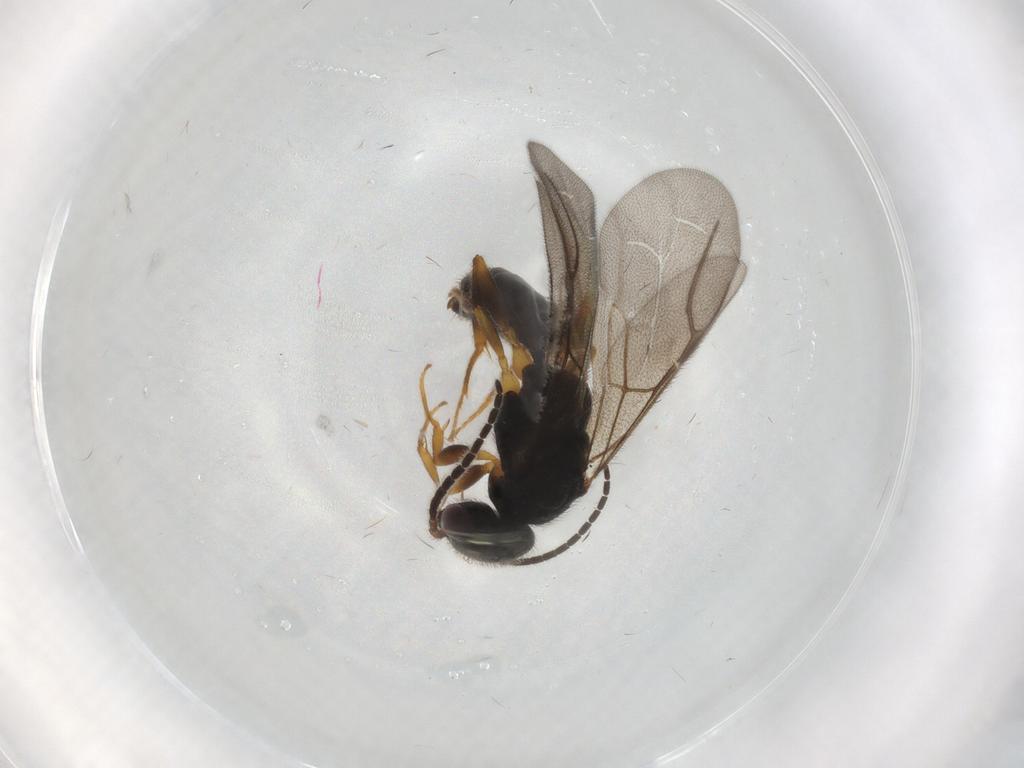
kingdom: Animalia
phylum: Arthropoda
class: Insecta
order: Hymenoptera
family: Bethylidae
